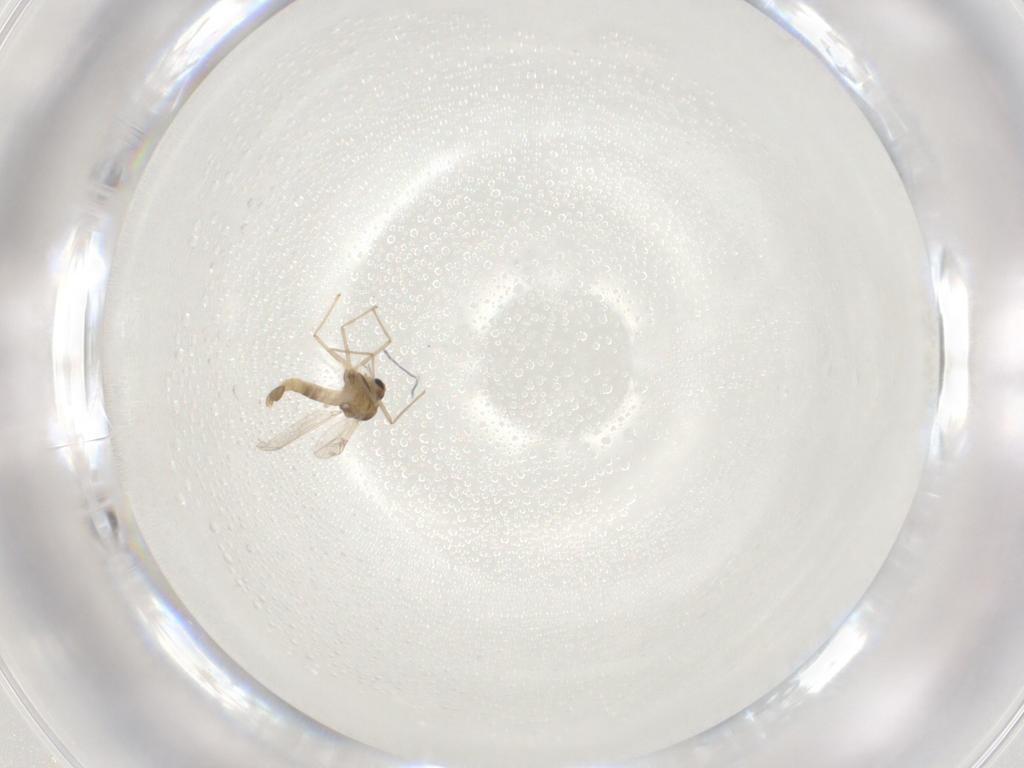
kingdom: Animalia
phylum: Arthropoda
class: Insecta
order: Diptera
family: Chironomidae
